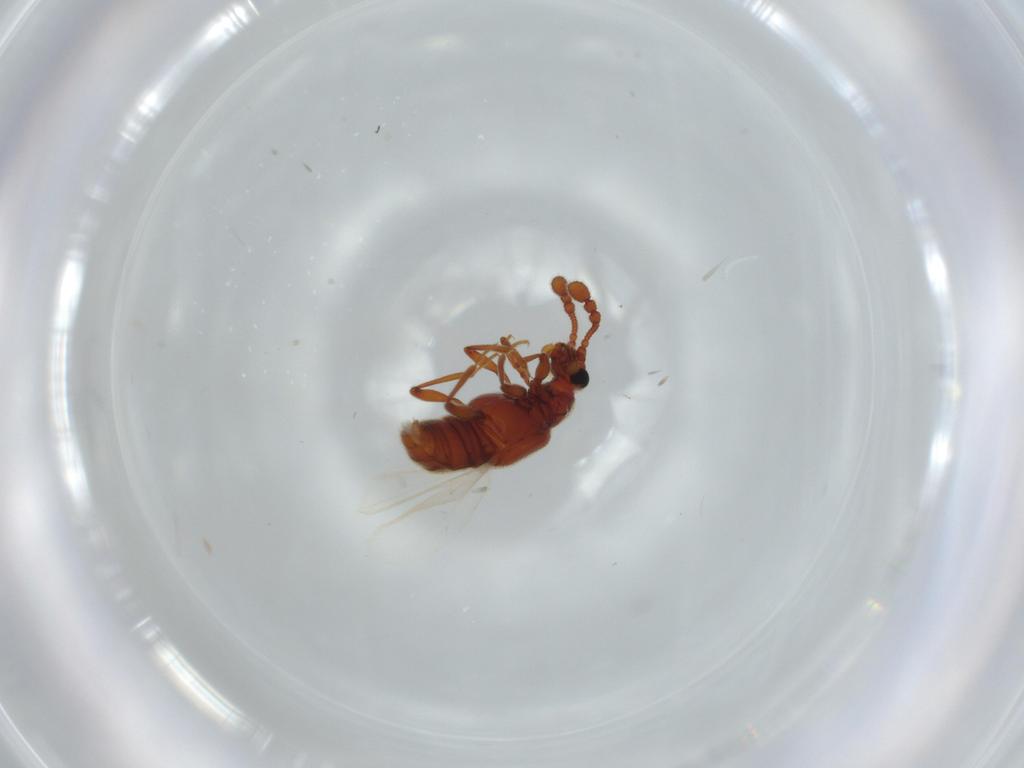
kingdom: Animalia
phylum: Arthropoda
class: Insecta
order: Coleoptera
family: Staphylinidae
